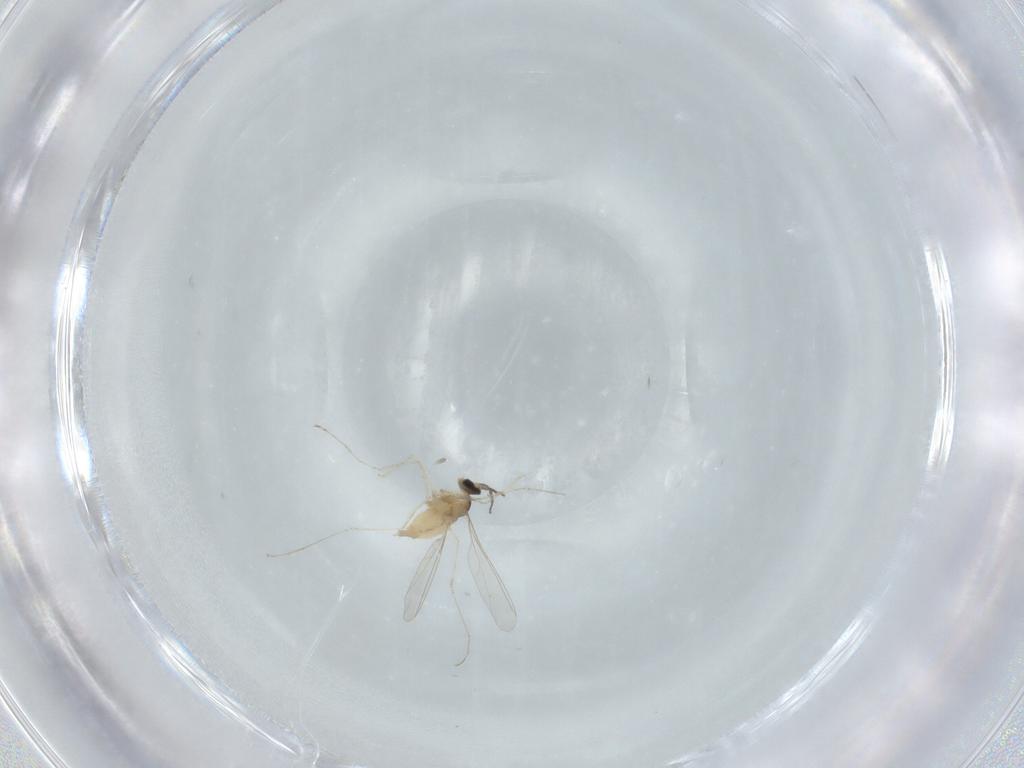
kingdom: Animalia
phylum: Arthropoda
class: Insecta
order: Diptera
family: Cecidomyiidae
